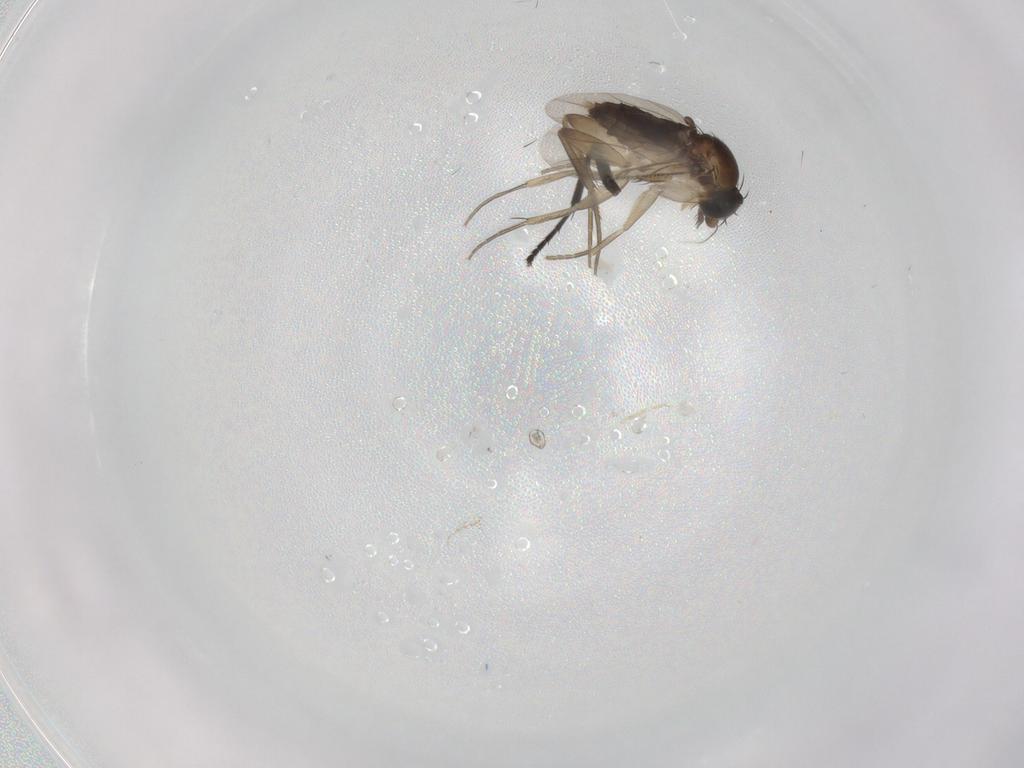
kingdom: Animalia
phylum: Arthropoda
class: Insecta
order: Diptera
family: Phoridae
